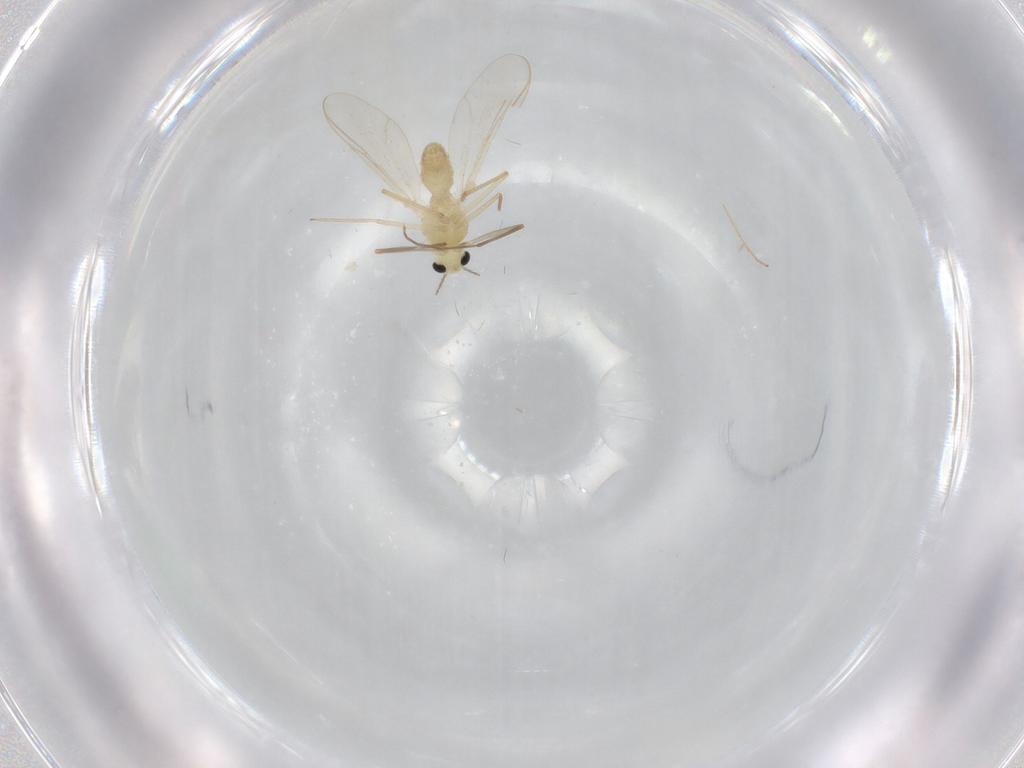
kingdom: Animalia
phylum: Arthropoda
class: Insecta
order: Diptera
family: Chironomidae
